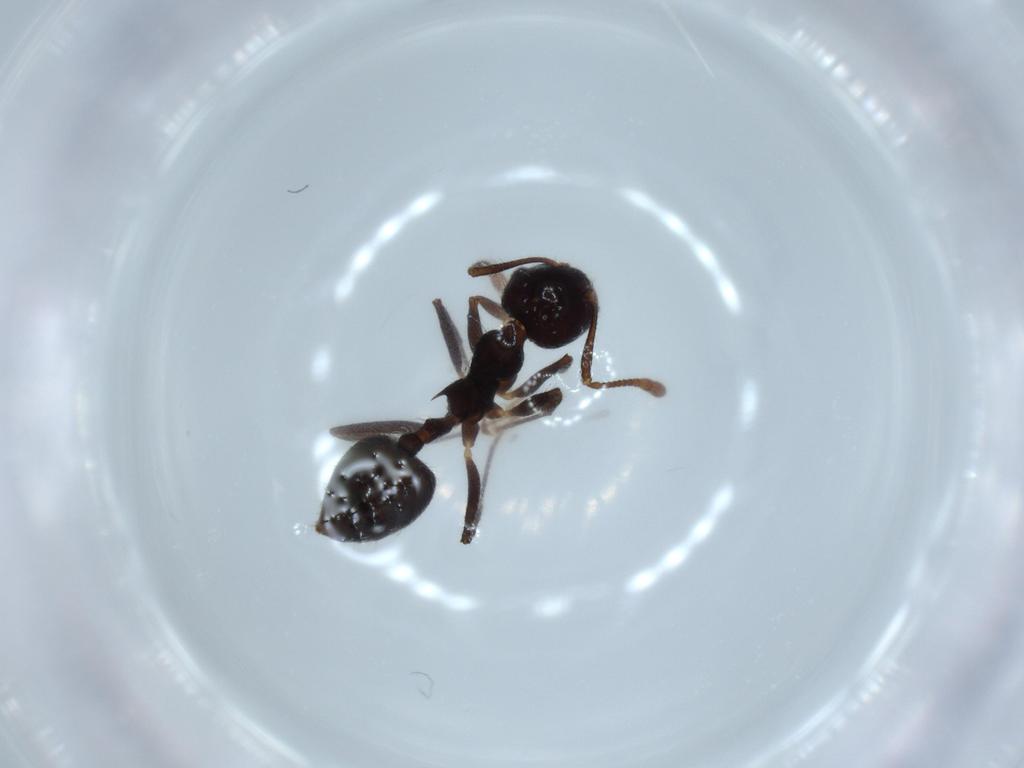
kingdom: Animalia
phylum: Arthropoda
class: Insecta
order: Hymenoptera
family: Formicidae
